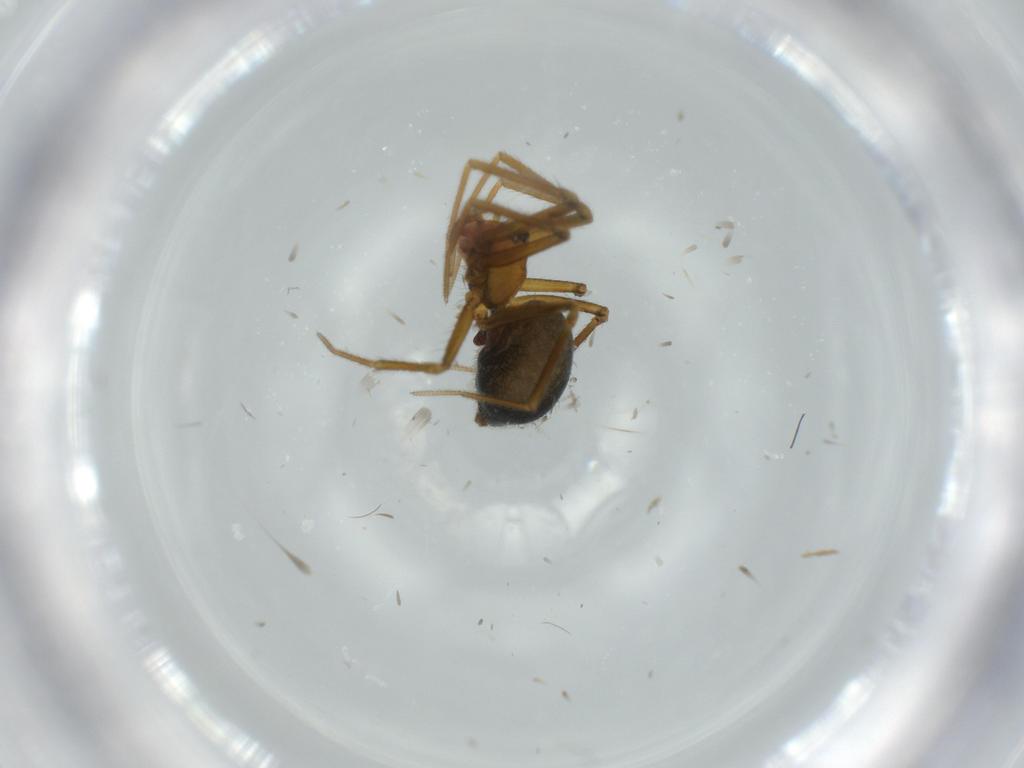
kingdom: Animalia
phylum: Arthropoda
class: Arachnida
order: Araneae
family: Linyphiidae
